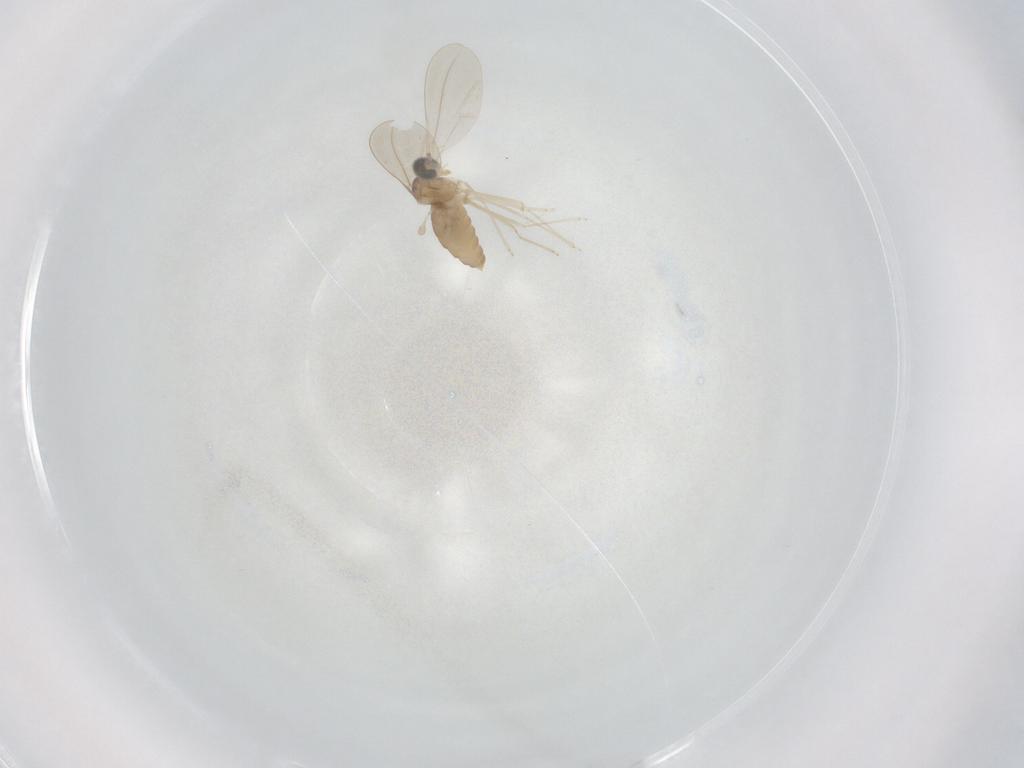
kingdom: Animalia
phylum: Arthropoda
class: Insecta
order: Diptera
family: Cecidomyiidae
